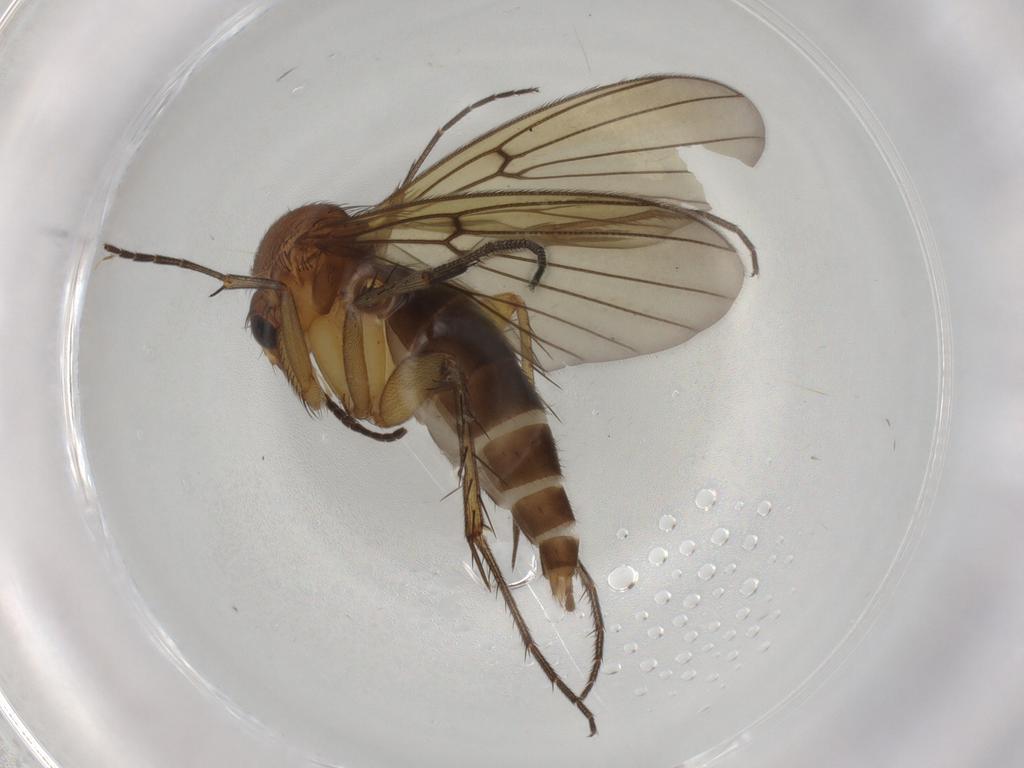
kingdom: Animalia
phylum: Arthropoda
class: Insecta
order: Diptera
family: Mycetophilidae
